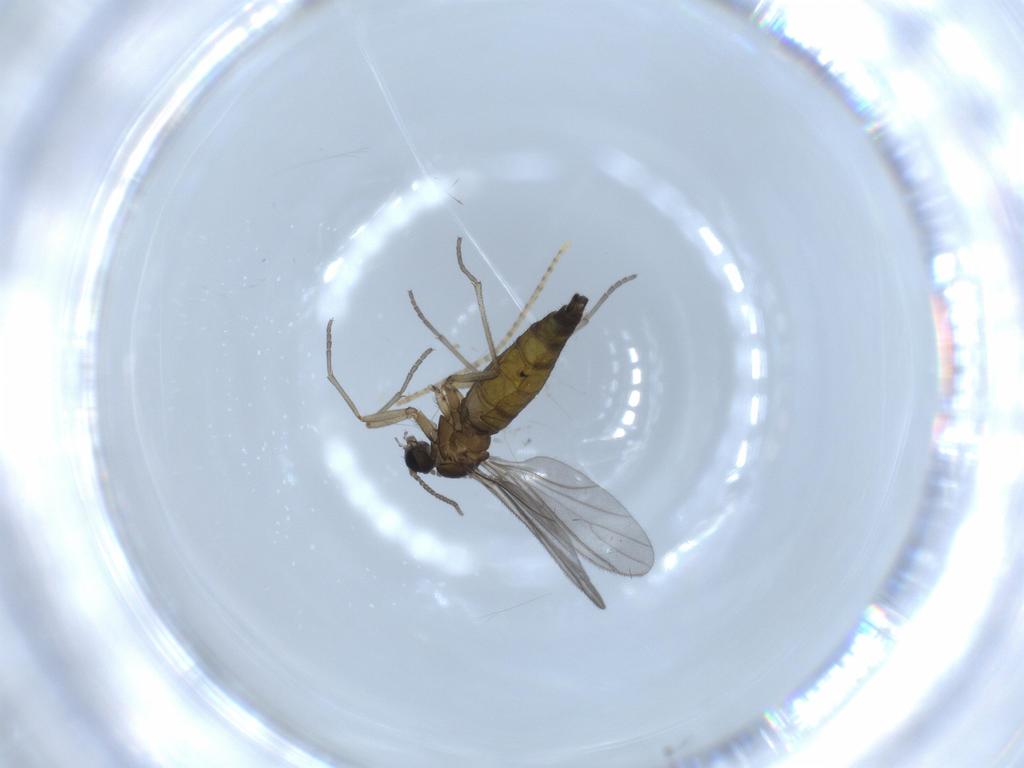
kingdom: Animalia
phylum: Arthropoda
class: Insecta
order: Diptera
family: Sciaridae
